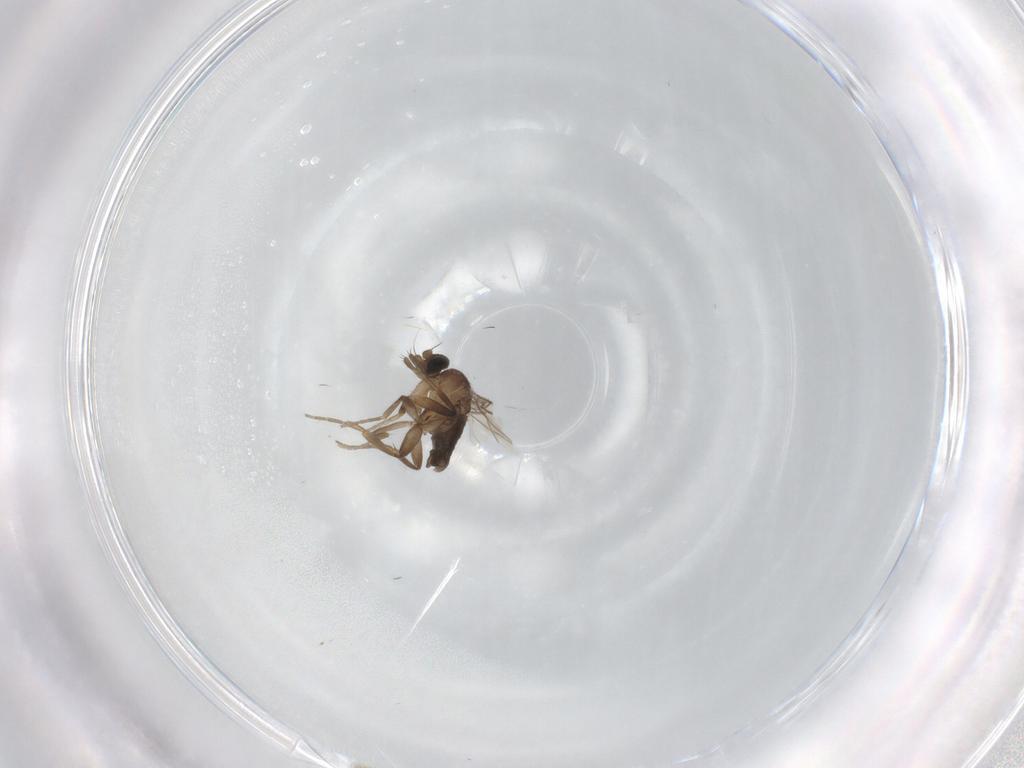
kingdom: Animalia
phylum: Arthropoda
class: Insecta
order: Diptera
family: Phoridae
